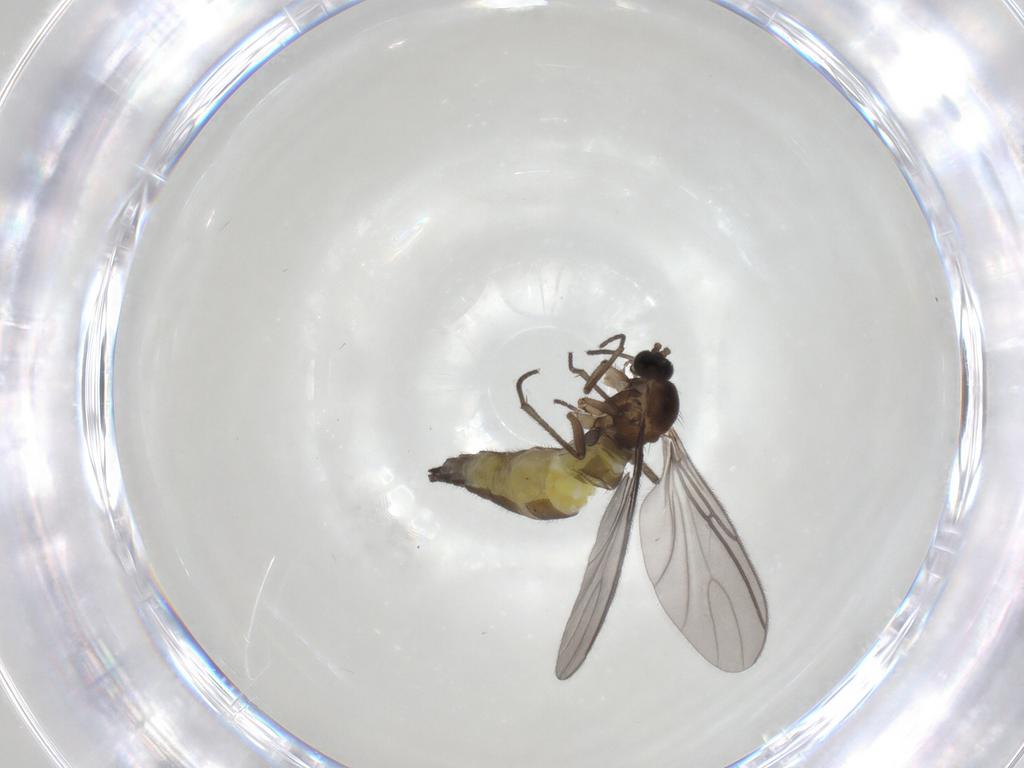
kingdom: Animalia
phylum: Arthropoda
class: Insecta
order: Diptera
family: Sciaridae
